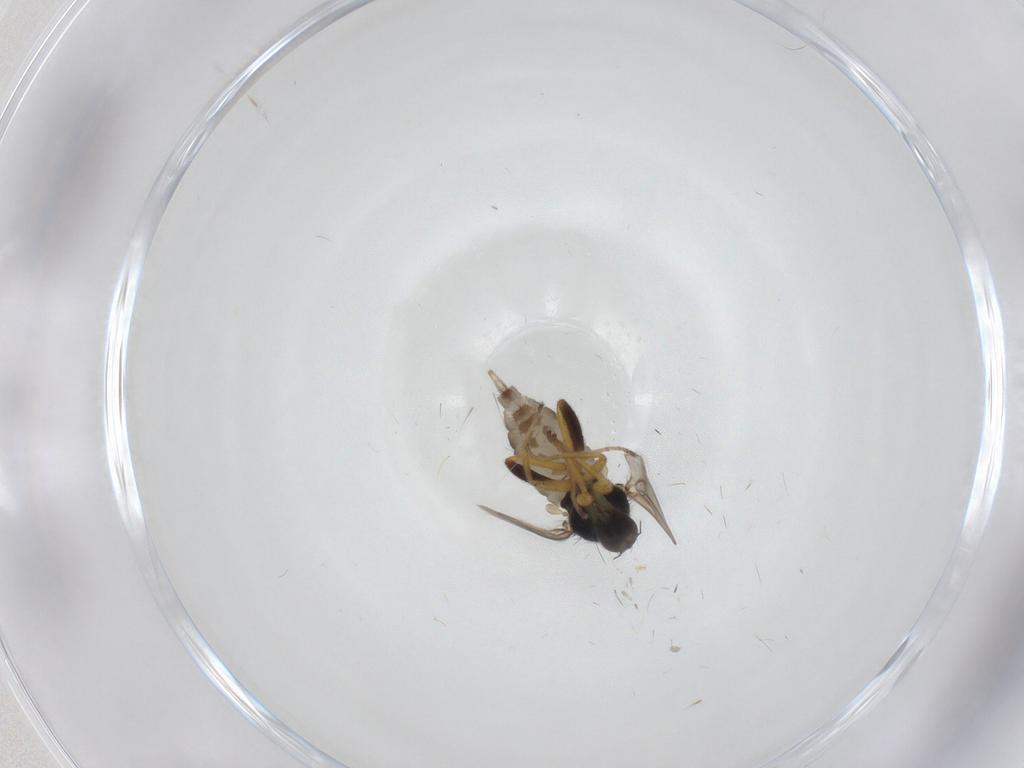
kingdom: Animalia
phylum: Arthropoda
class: Insecta
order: Diptera
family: Hybotidae
